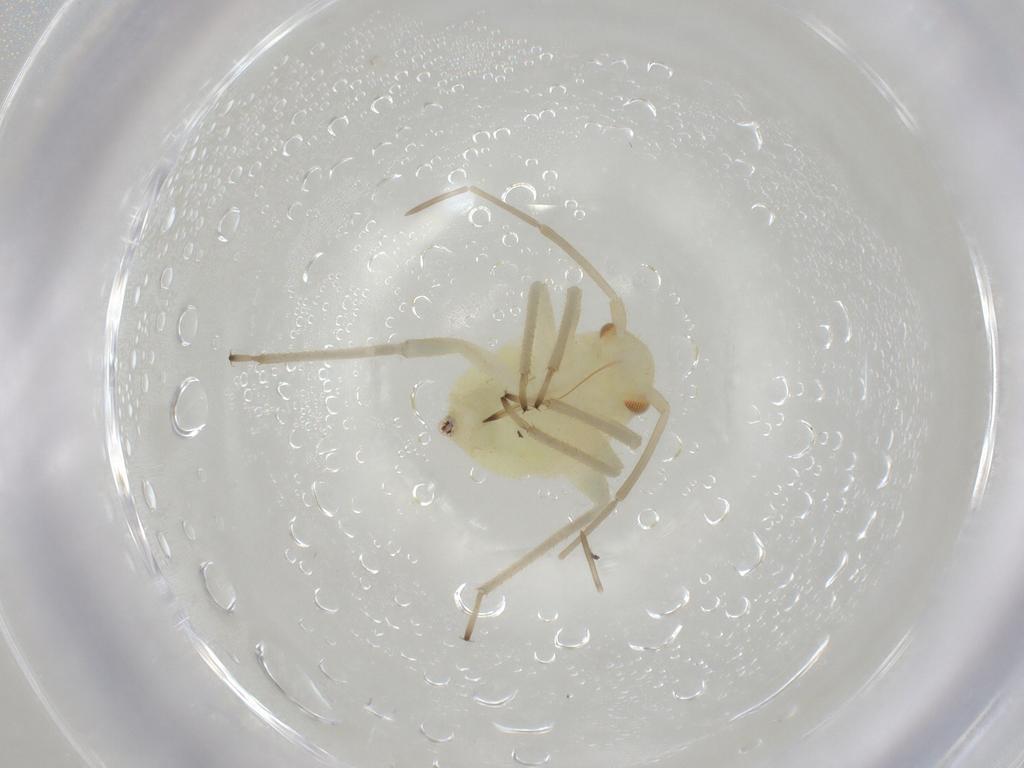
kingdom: Animalia
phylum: Arthropoda
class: Insecta
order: Hemiptera
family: Miridae
